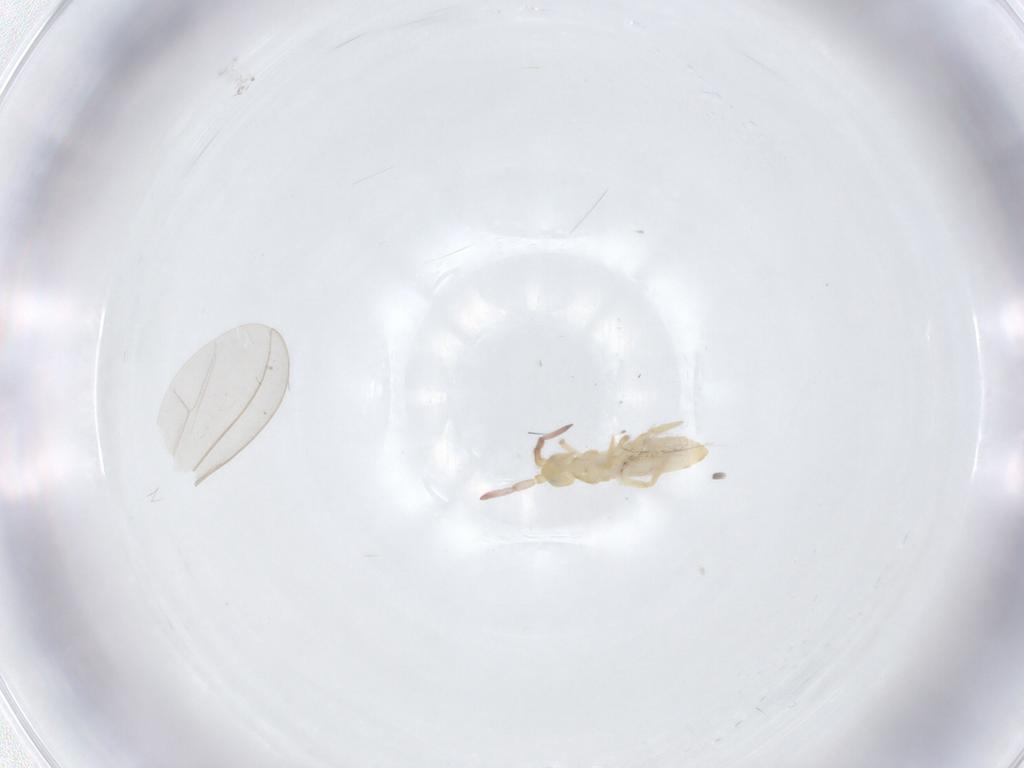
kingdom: Animalia
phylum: Arthropoda
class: Collembola
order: Entomobryomorpha
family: Entomobryidae
